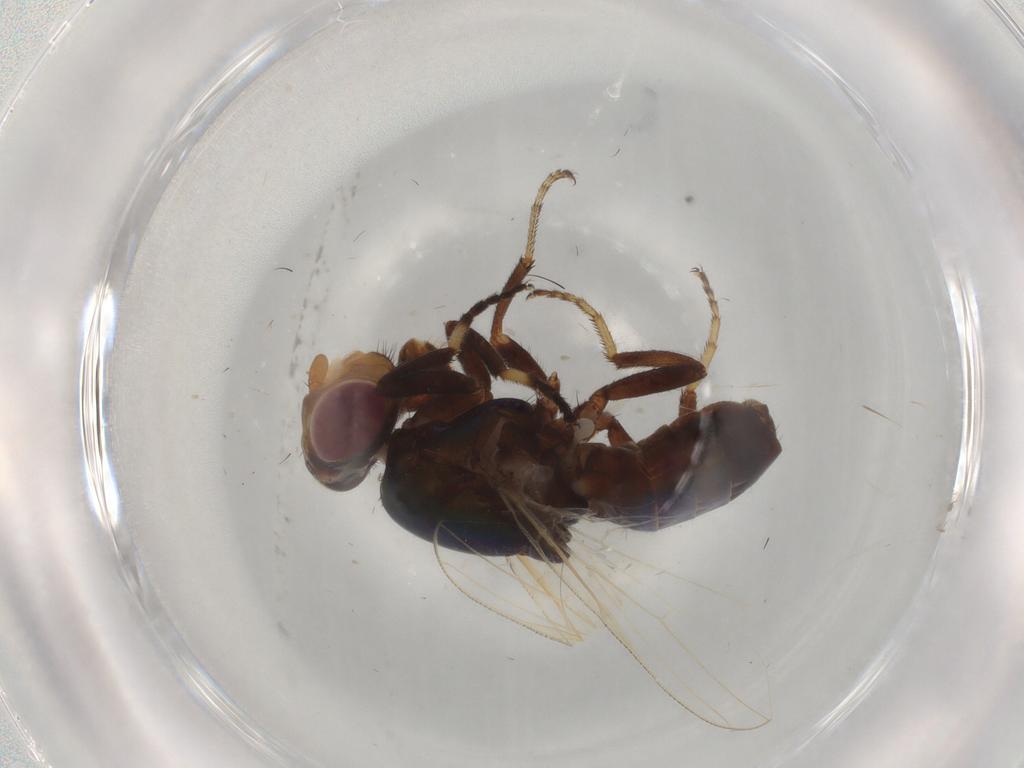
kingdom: Animalia
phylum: Arthropoda
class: Insecta
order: Diptera
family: Ulidiidae
